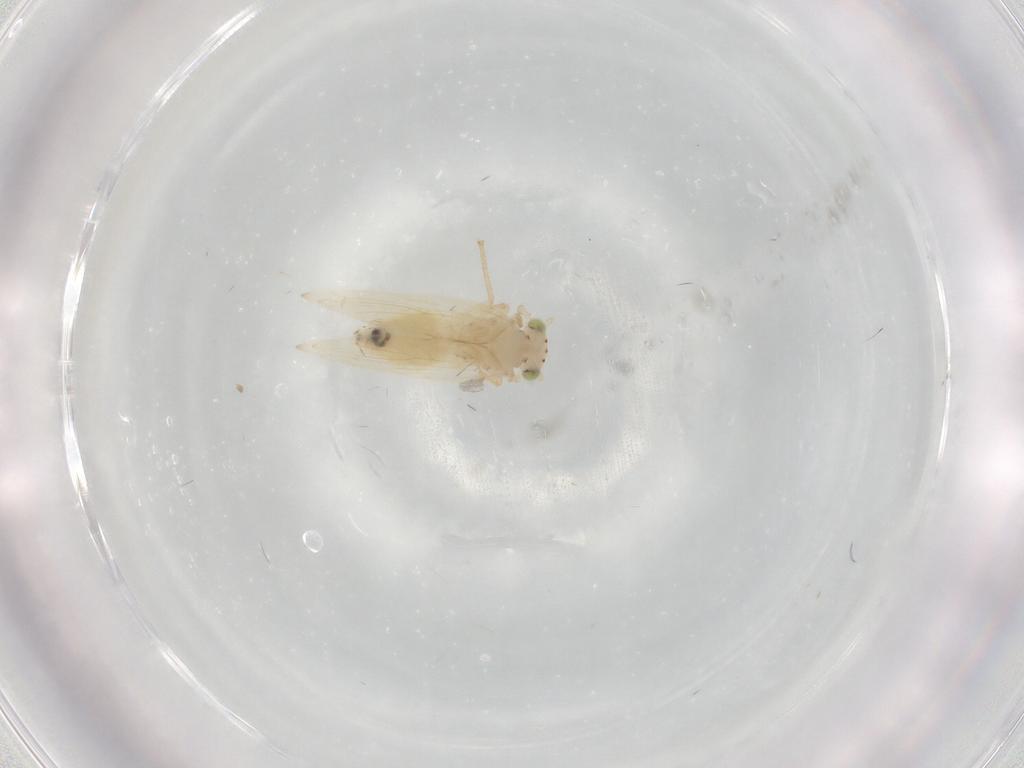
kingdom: Animalia
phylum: Arthropoda
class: Insecta
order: Psocodea
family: Lepidopsocidae
